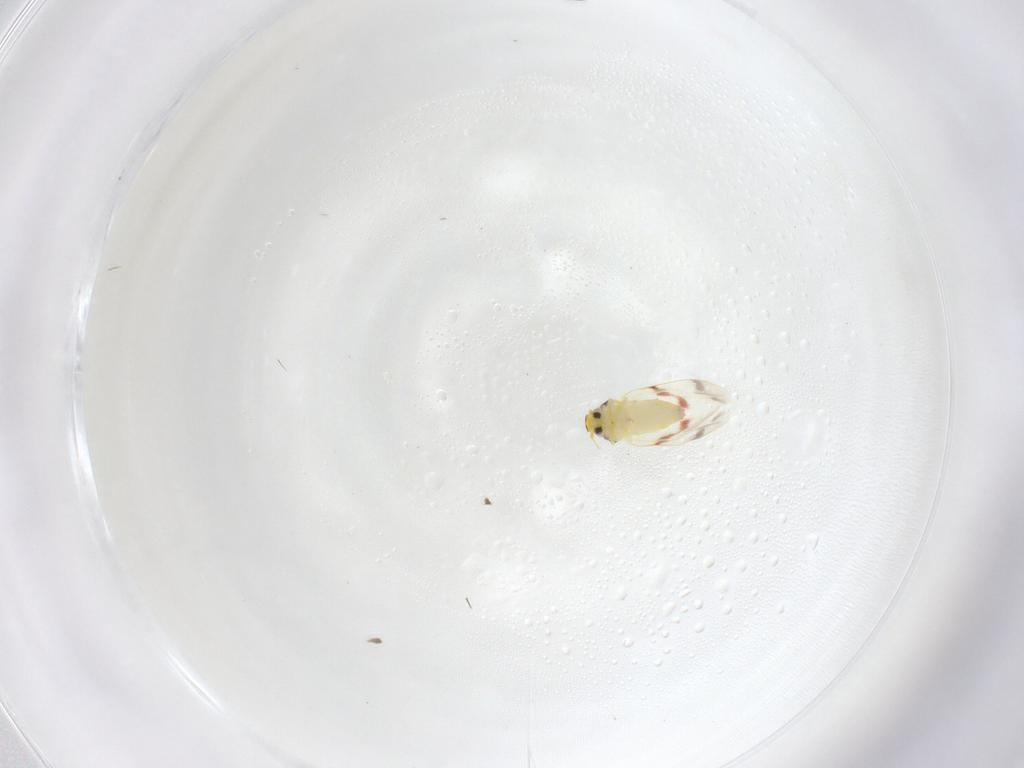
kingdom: Animalia
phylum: Arthropoda
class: Insecta
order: Hemiptera
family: Aleyrodidae
